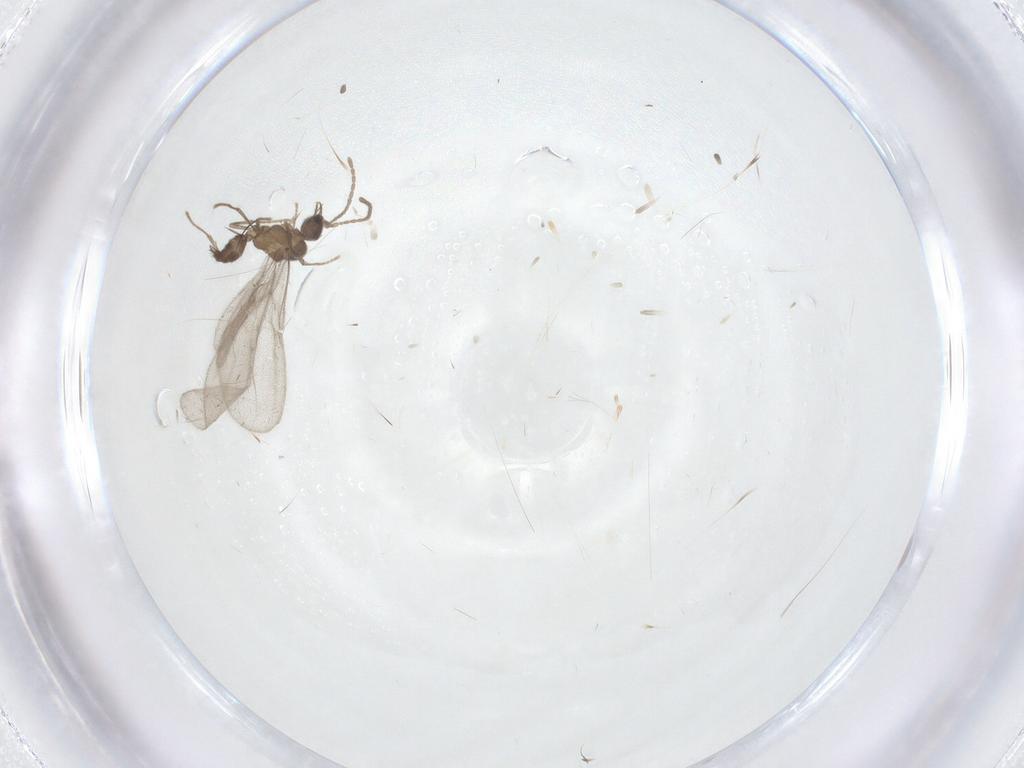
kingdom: Animalia
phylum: Arthropoda
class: Insecta
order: Hymenoptera
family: Formicidae
